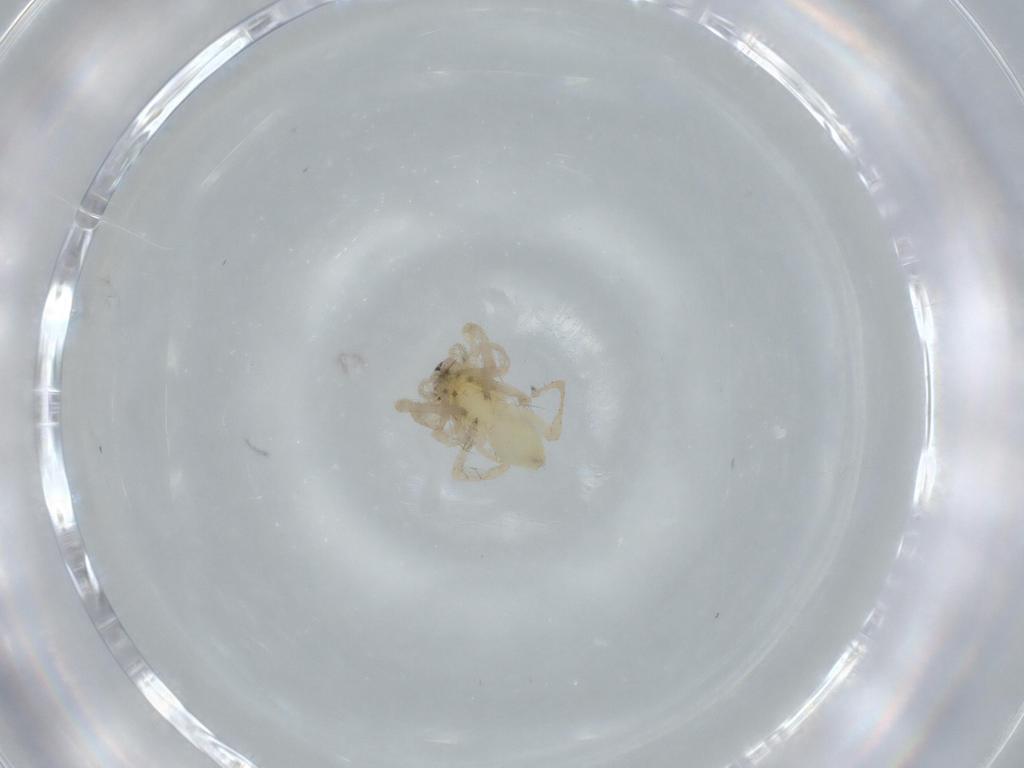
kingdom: Animalia
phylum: Arthropoda
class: Arachnida
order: Araneae
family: Anyphaenidae
